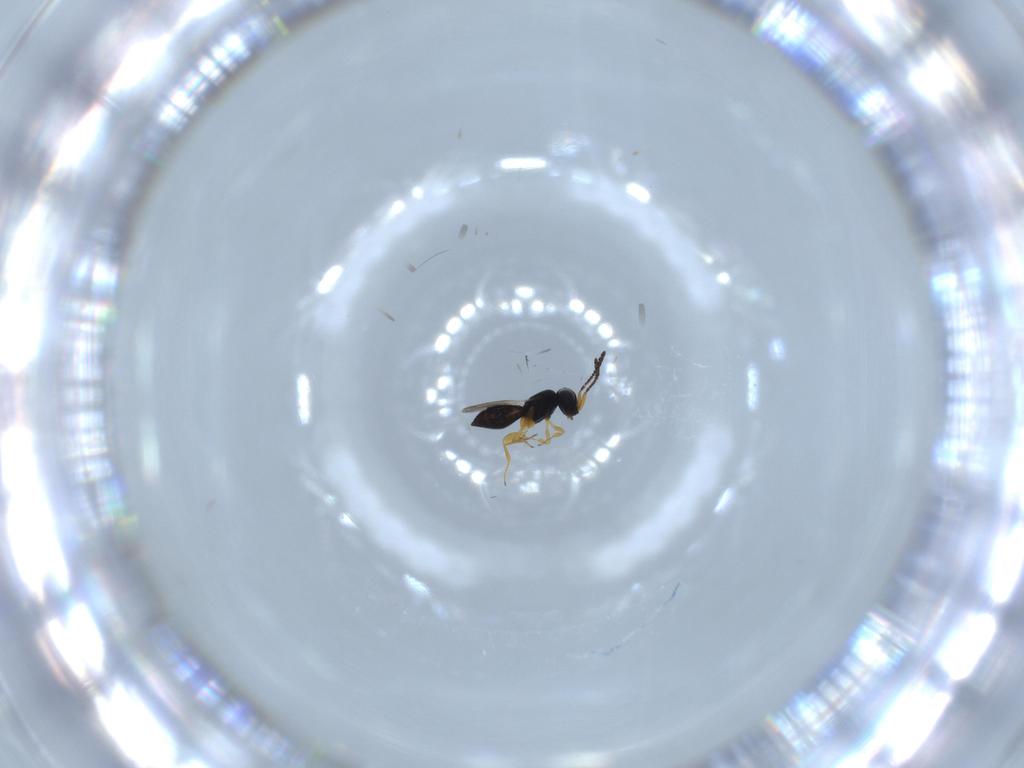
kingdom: Animalia
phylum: Arthropoda
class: Insecta
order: Hymenoptera
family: Scelionidae
